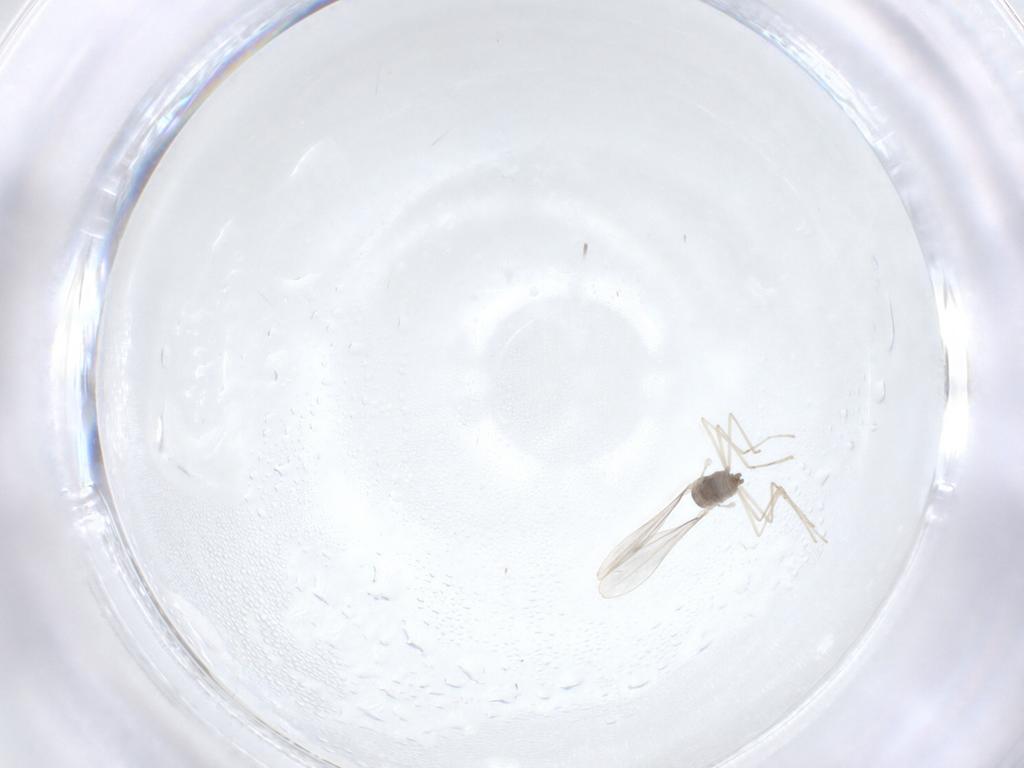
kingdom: Animalia
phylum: Arthropoda
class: Insecta
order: Diptera
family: Cecidomyiidae
